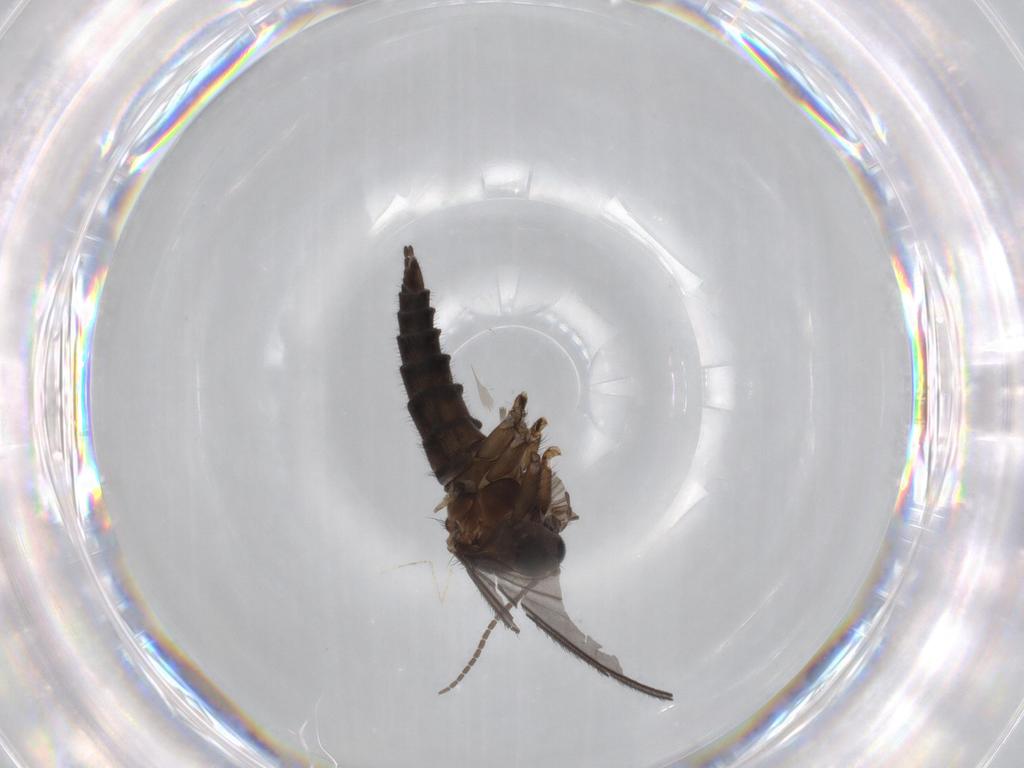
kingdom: Animalia
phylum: Arthropoda
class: Insecta
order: Diptera
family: Sciaridae
